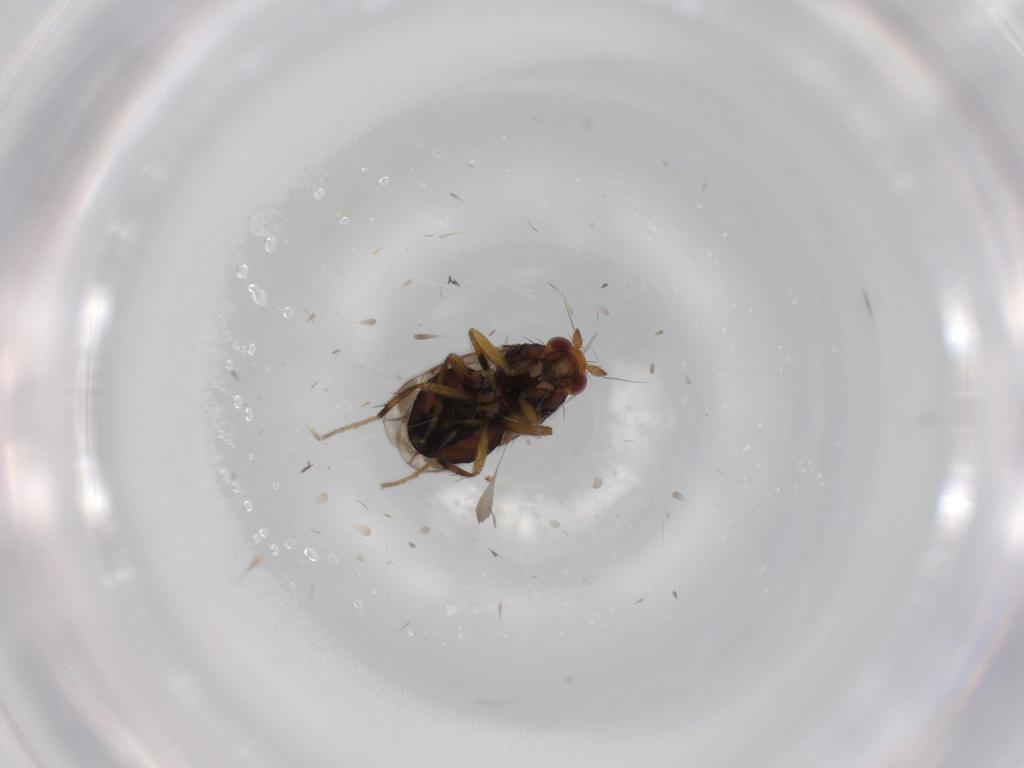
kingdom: Animalia
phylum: Arthropoda
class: Insecta
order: Diptera
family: Sphaeroceridae
